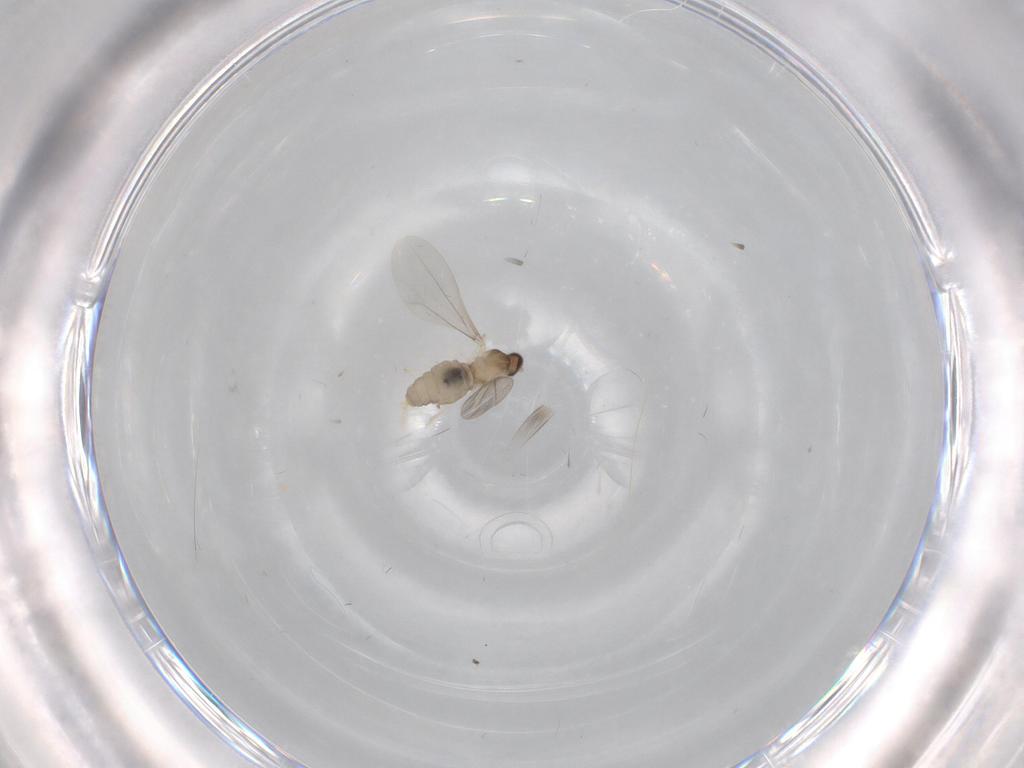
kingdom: Animalia
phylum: Arthropoda
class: Insecta
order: Diptera
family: Cecidomyiidae
